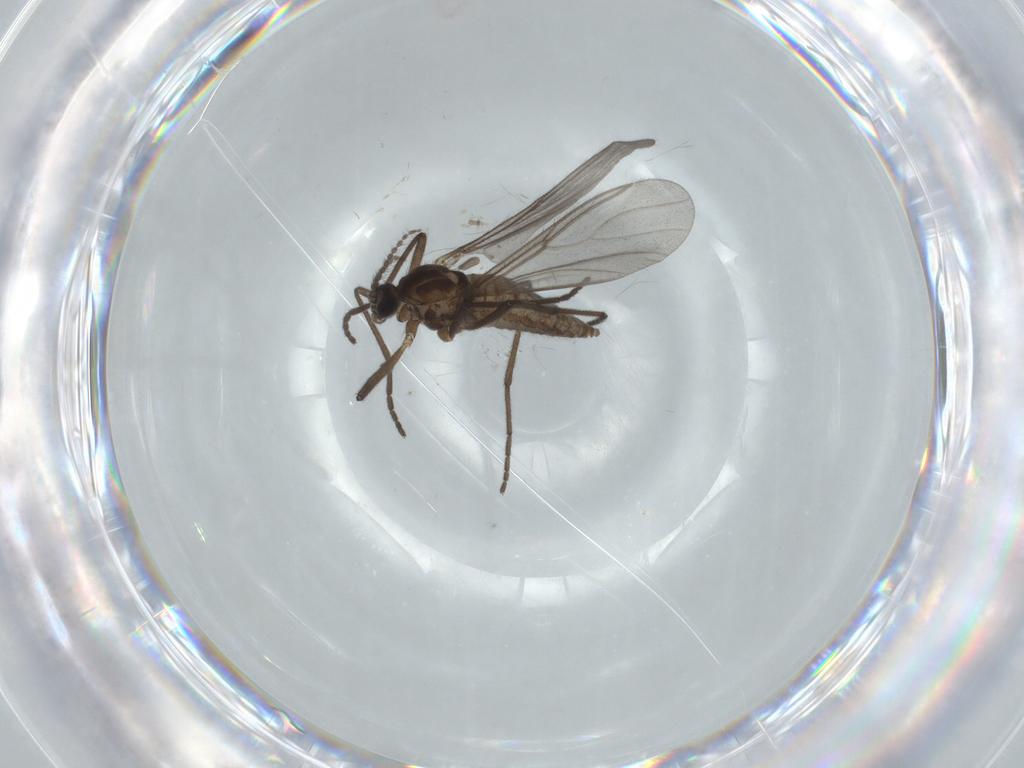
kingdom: Animalia
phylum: Arthropoda
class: Insecta
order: Diptera
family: Cecidomyiidae
